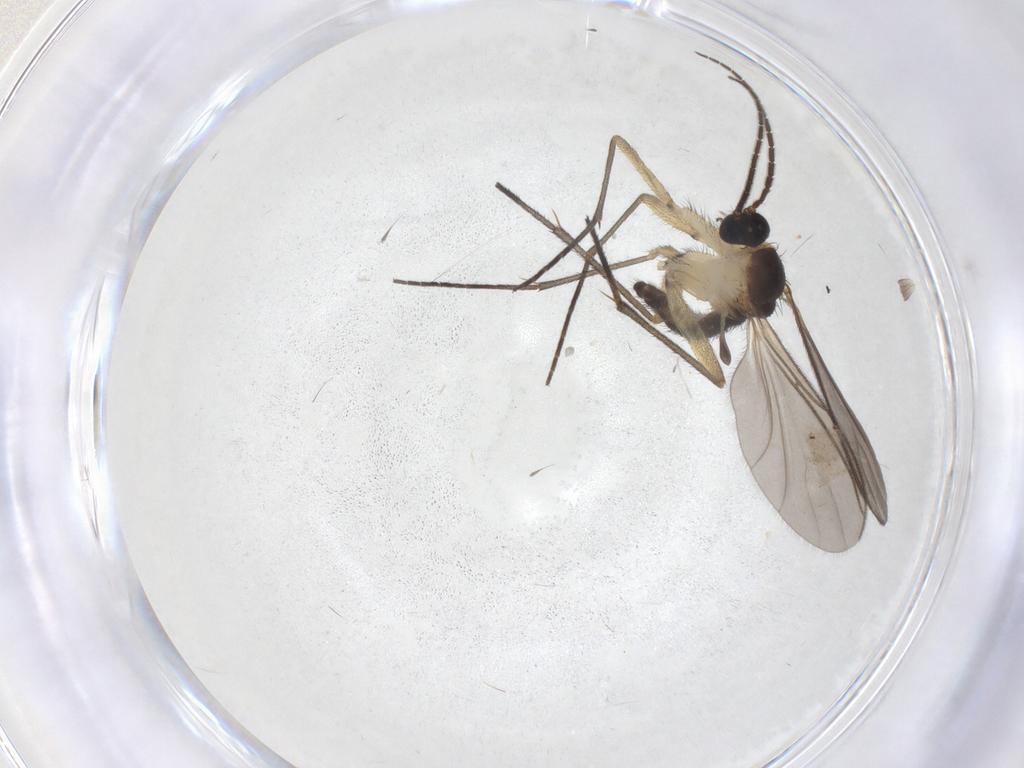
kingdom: Animalia
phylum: Arthropoda
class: Insecta
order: Diptera
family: Sciaridae
